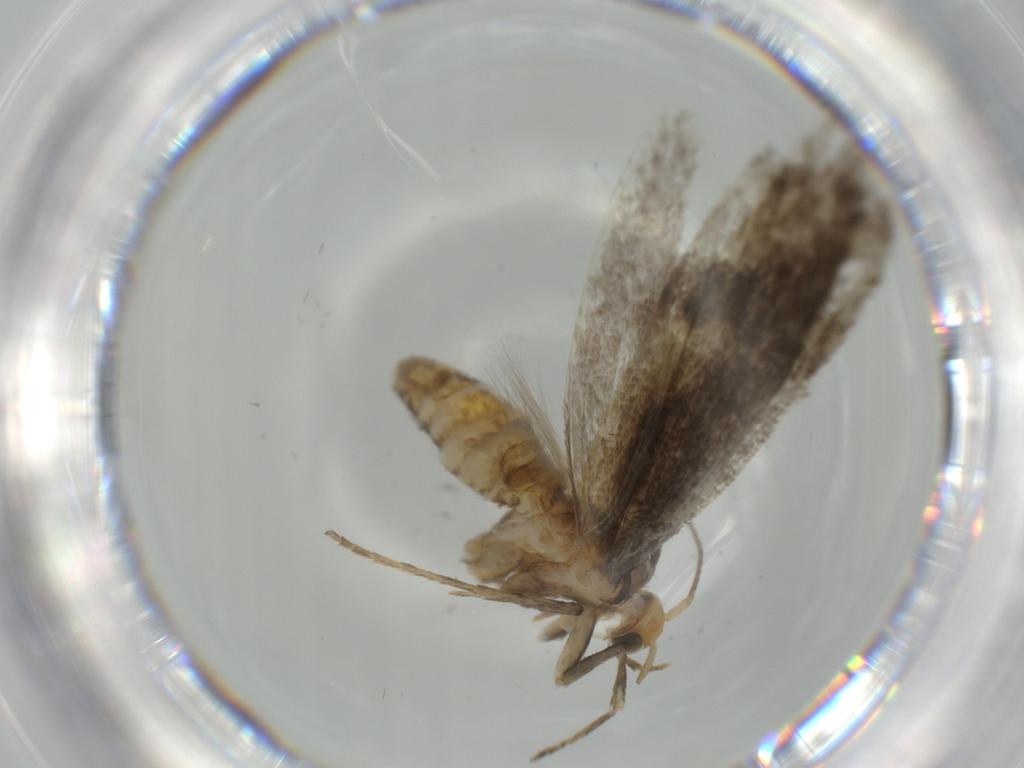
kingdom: Animalia
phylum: Arthropoda
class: Insecta
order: Lepidoptera
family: Argyresthiidae
